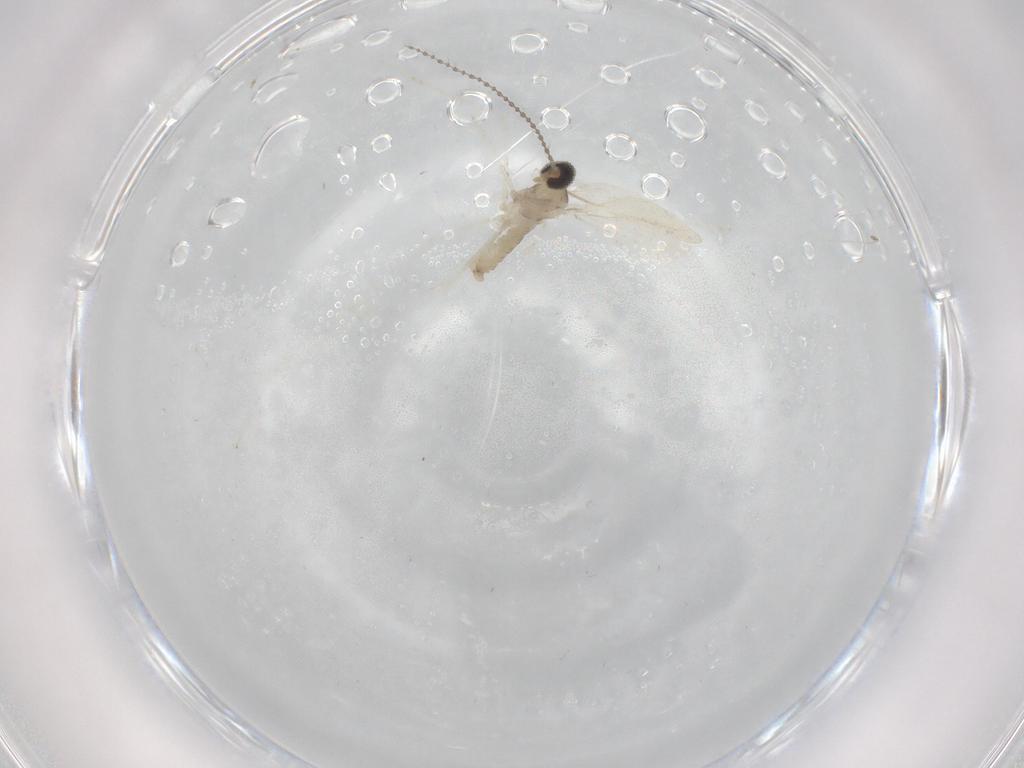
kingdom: Animalia
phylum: Arthropoda
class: Insecta
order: Diptera
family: Cecidomyiidae
